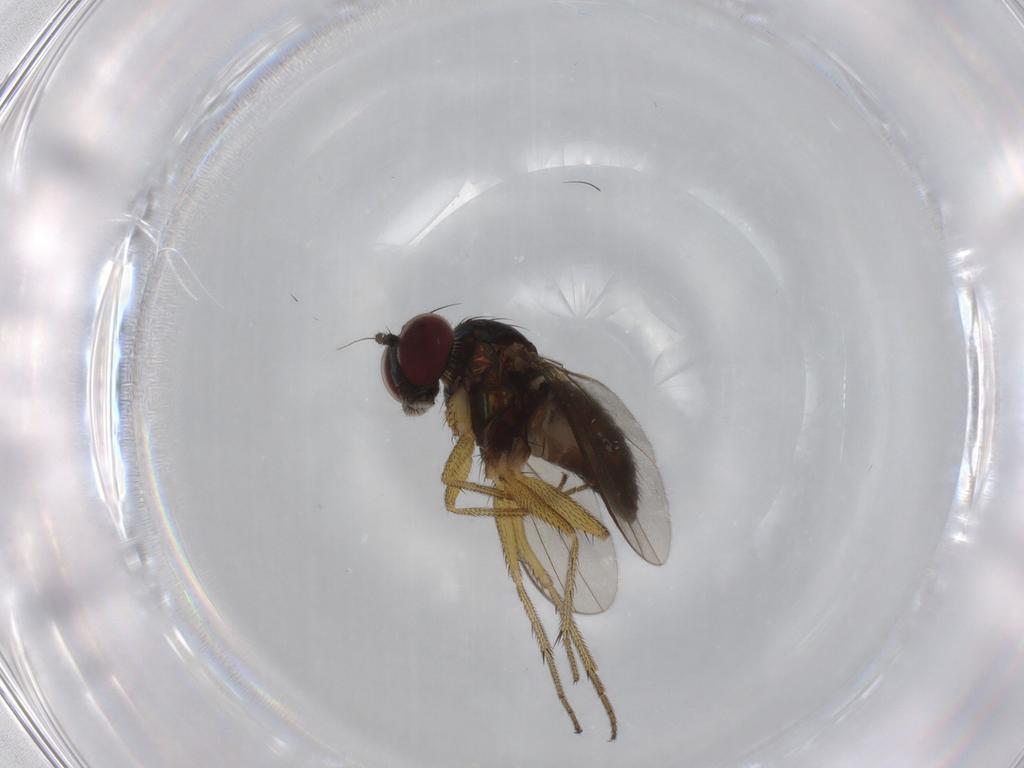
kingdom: Animalia
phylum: Arthropoda
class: Insecta
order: Diptera
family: Dolichopodidae
